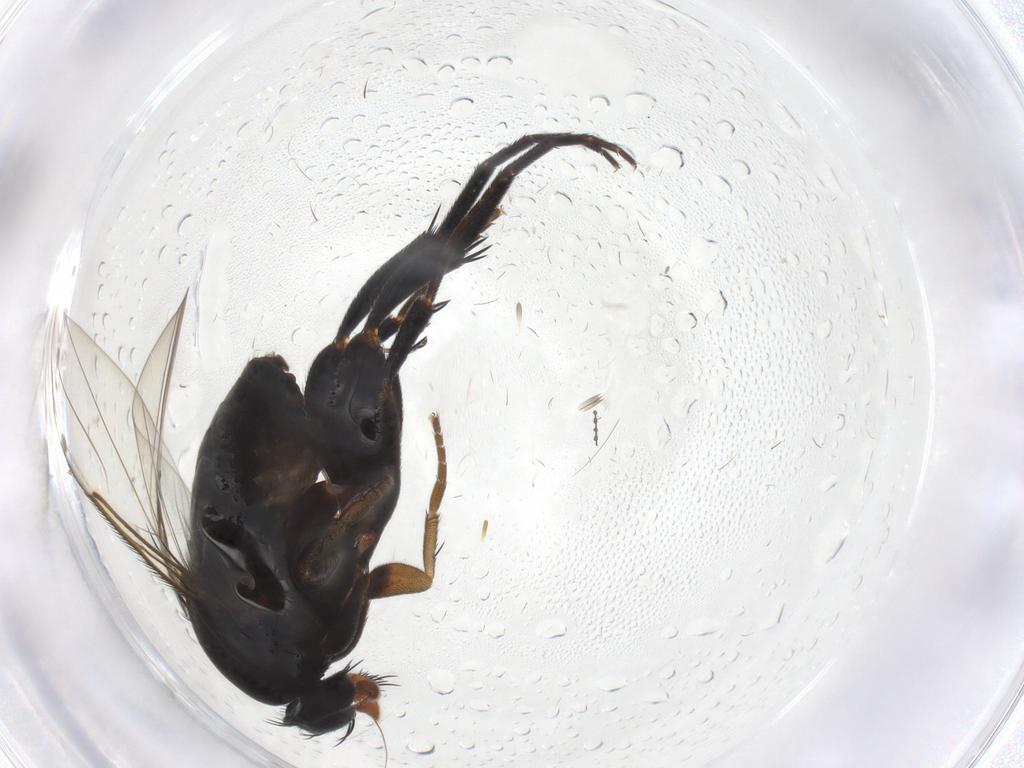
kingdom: Animalia
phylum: Arthropoda
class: Insecta
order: Diptera
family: Phoridae
